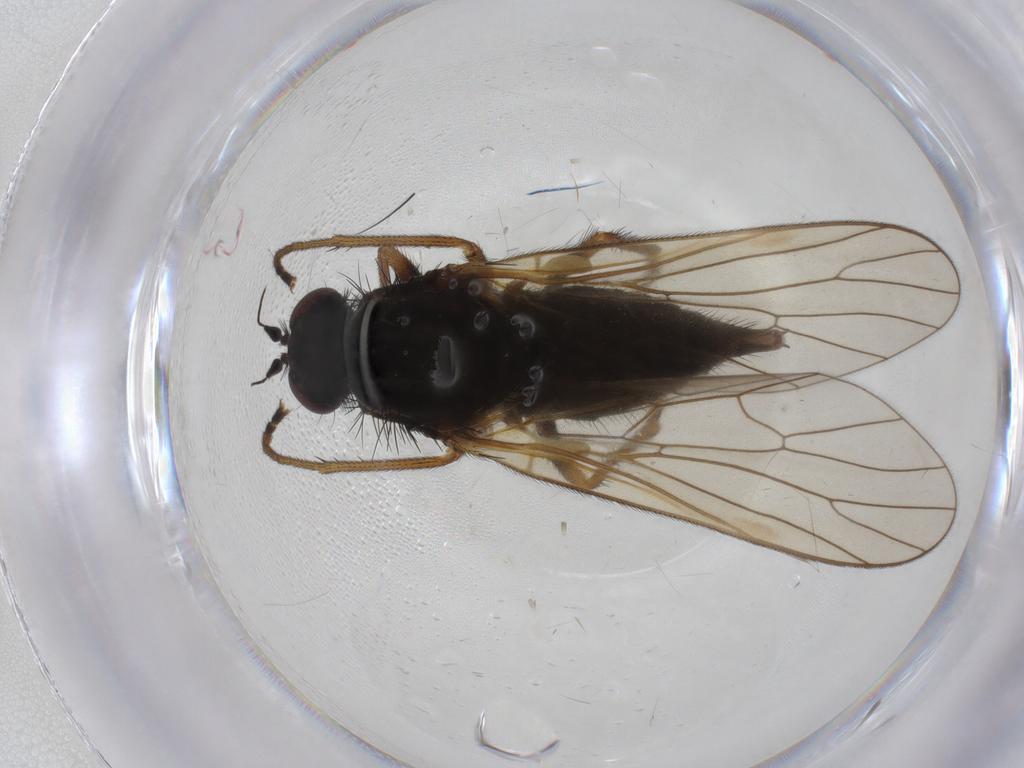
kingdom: Animalia
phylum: Arthropoda
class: Insecta
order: Diptera
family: Brachystomatidae
